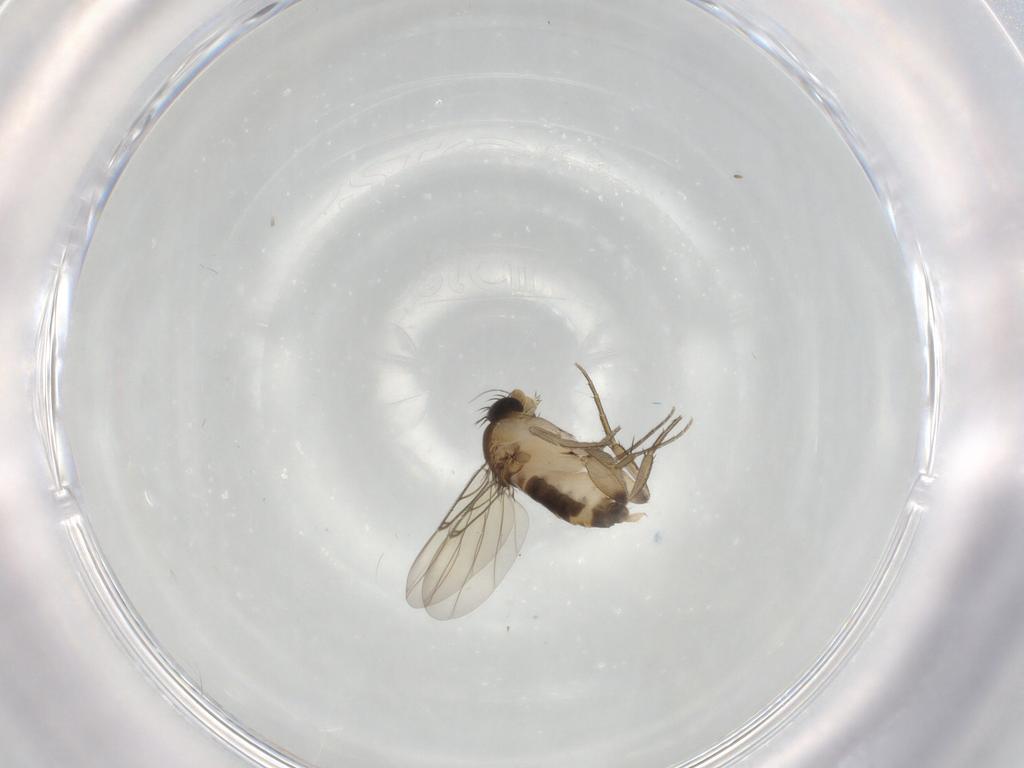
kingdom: Animalia
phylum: Arthropoda
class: Insecta
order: Diptera
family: Phoridae
